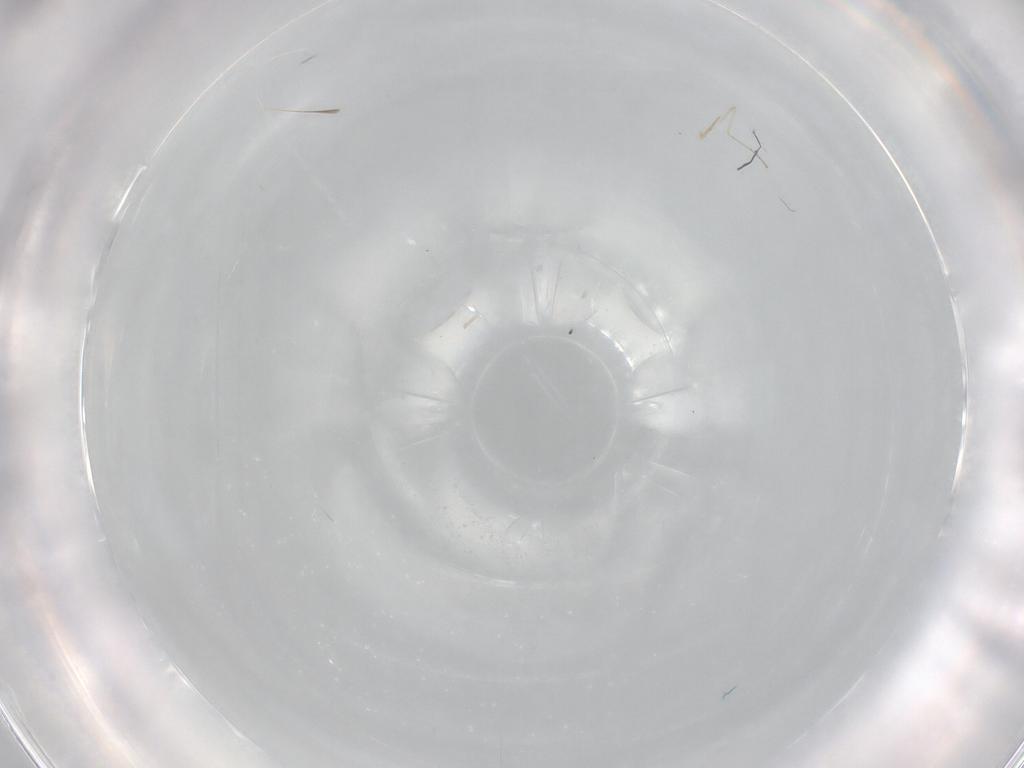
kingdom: Animalia
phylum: Arthropoda
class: Insecta
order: Diptera
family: Cecidomyiidae
